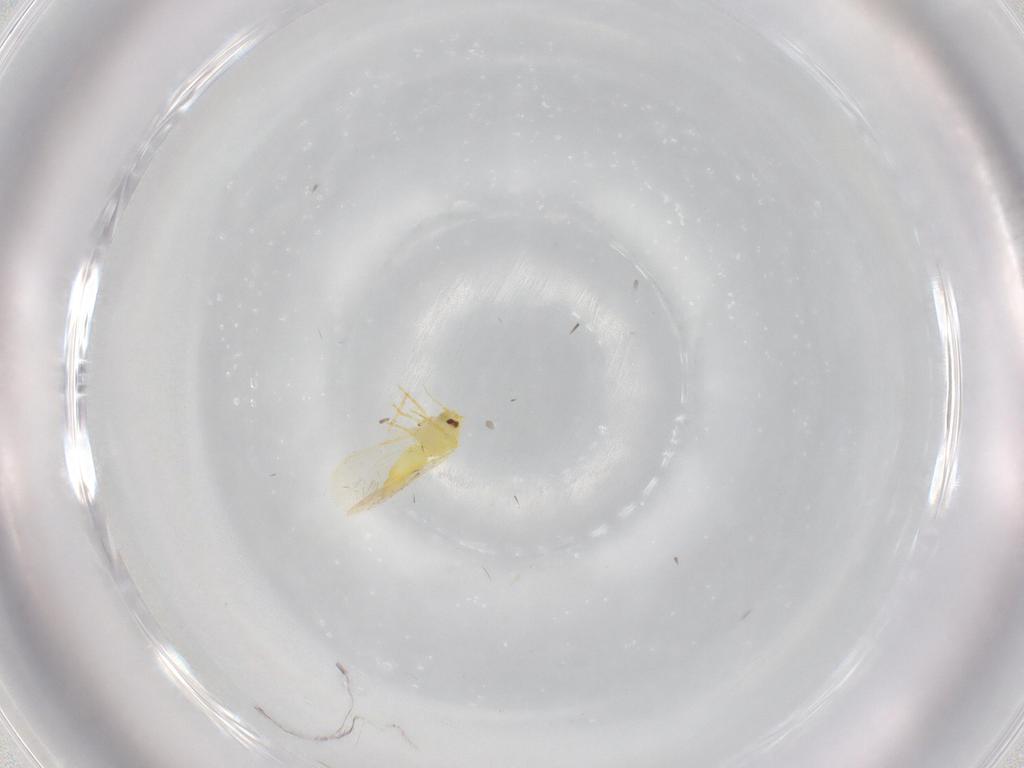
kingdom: Animalia
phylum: Arthropoda
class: Insecta
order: Hemiptera
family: Aleyrodidae
